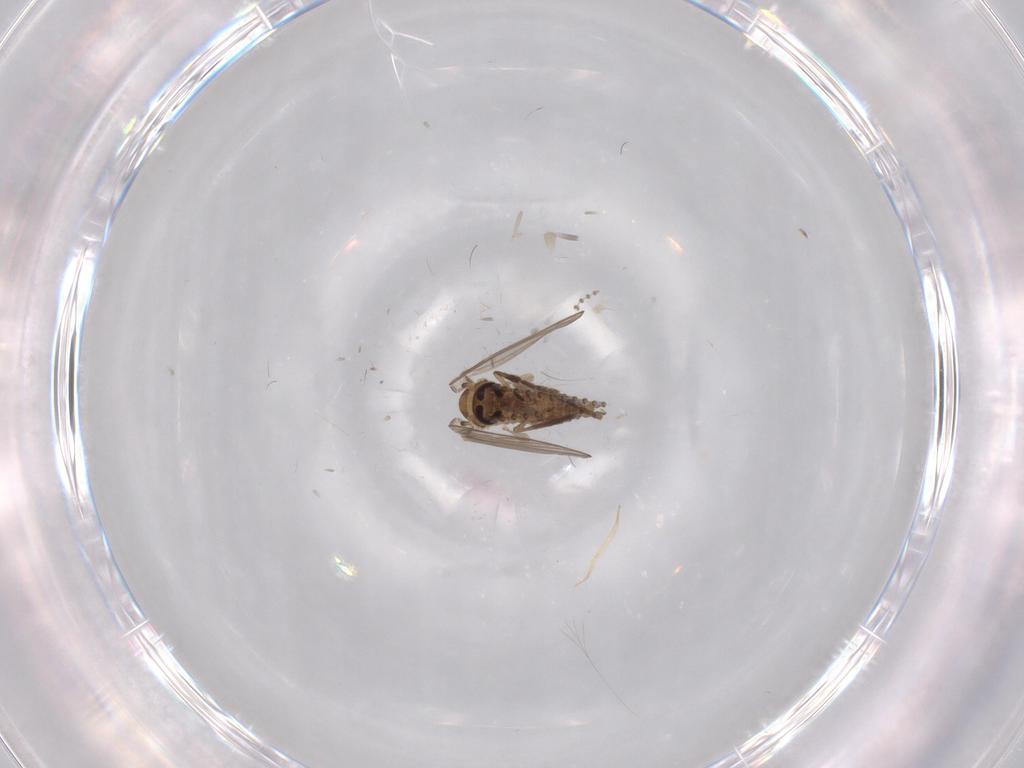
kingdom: Animalia
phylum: Arthropoda
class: Insecta
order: Diptera
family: Psychodidae
